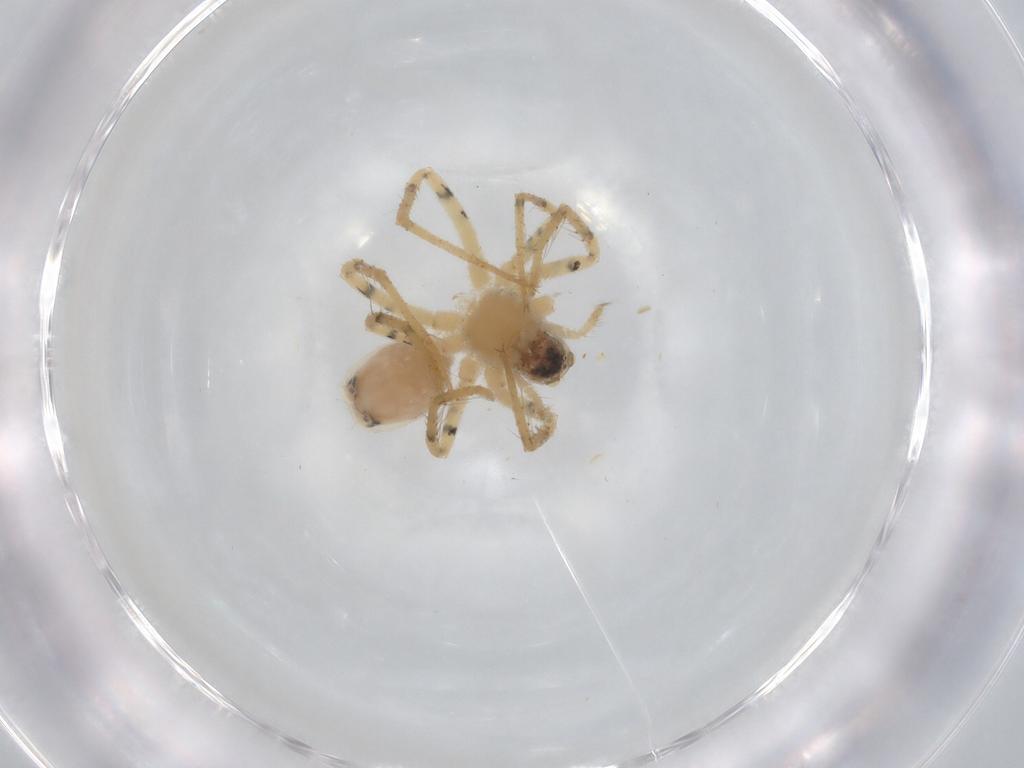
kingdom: Animalia
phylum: Arthropoda
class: Arachnida
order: Araneae
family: Lycosidae
